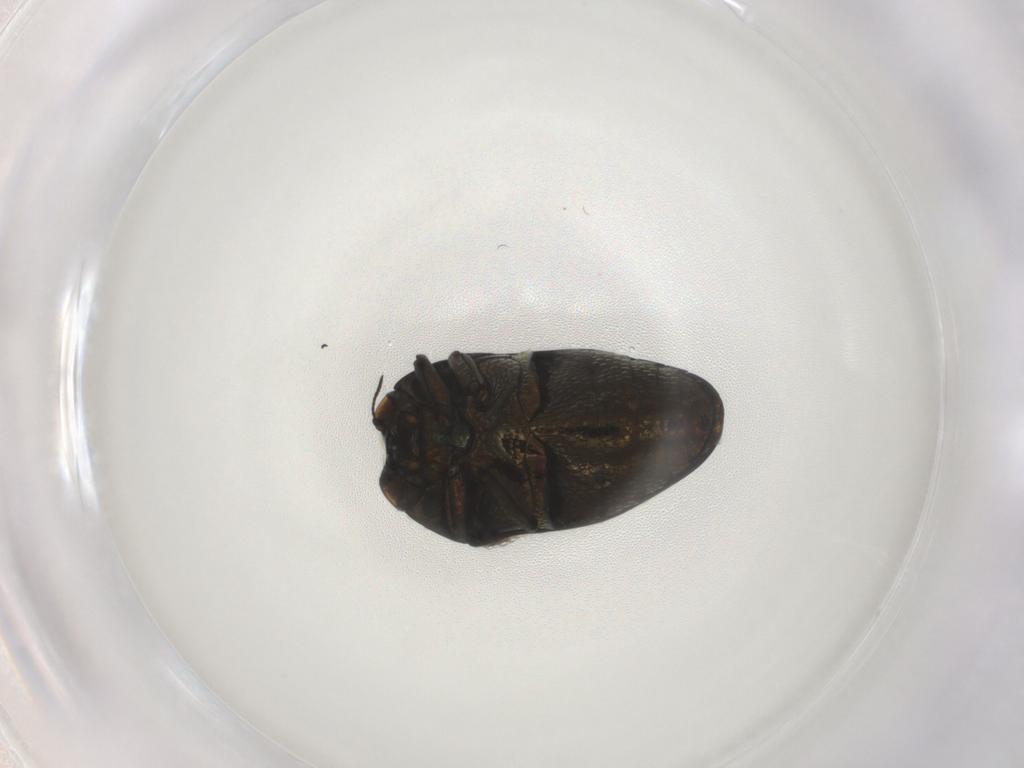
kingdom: Animalia
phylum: Arthropoda
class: Insecta
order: Coleoptera
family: Buprestidae
